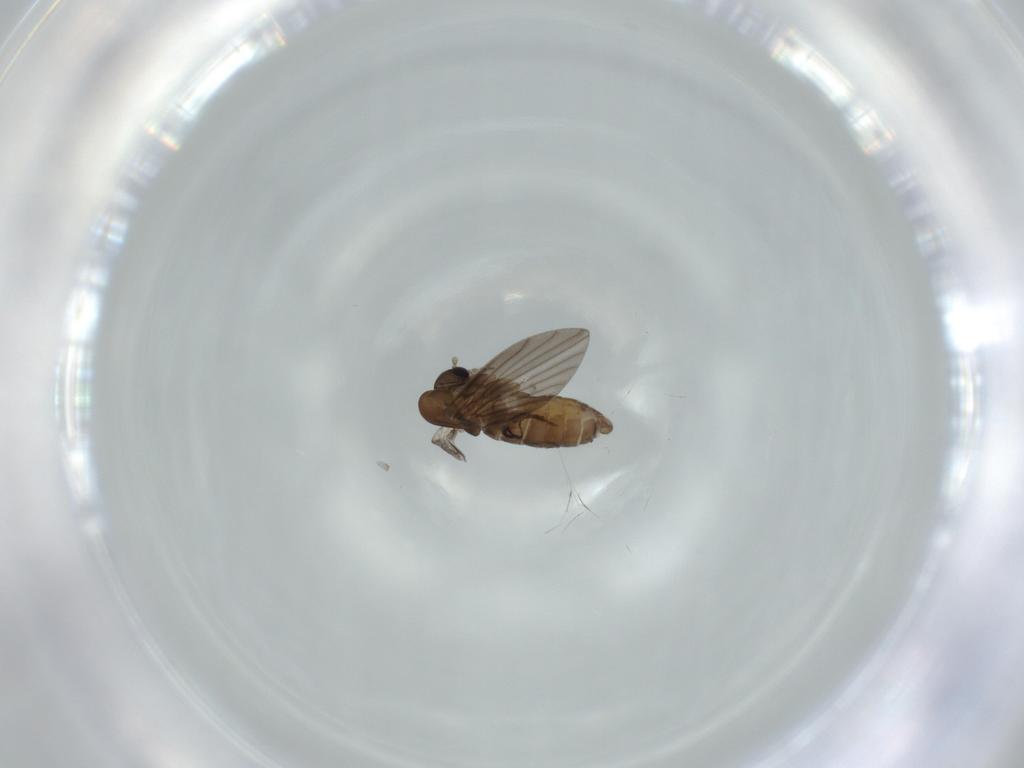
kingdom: Animalia
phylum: Arthropoda
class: Insecta
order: Diptera
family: Psychodidae
